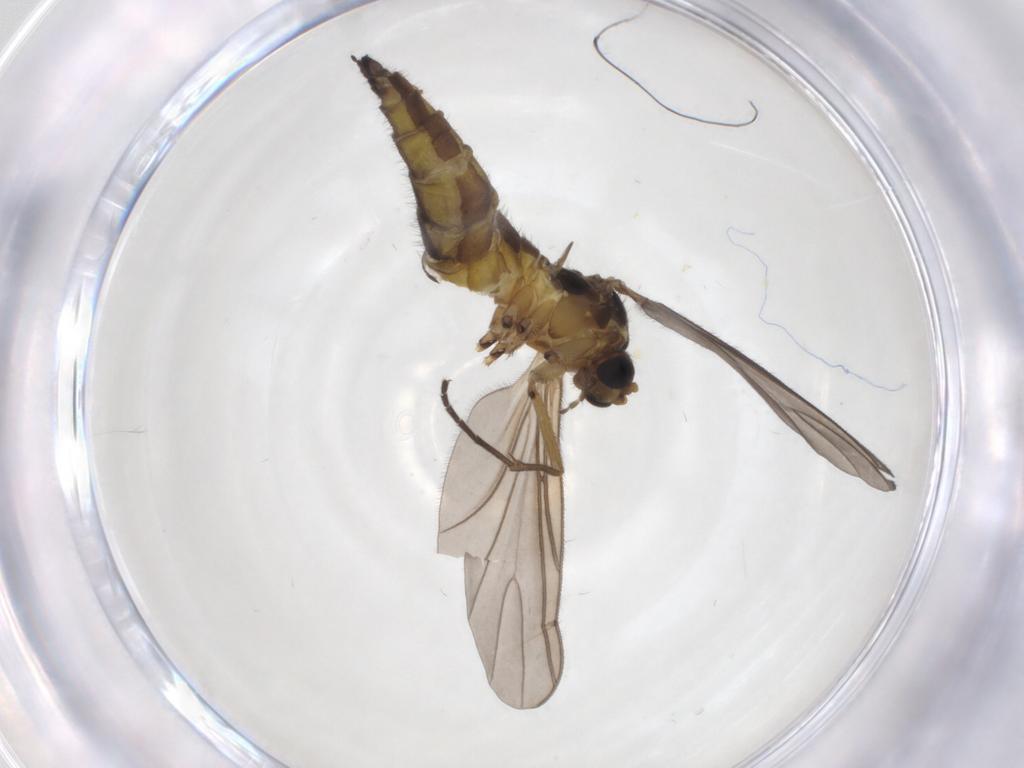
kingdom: Animalia
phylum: Arthropoda
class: Insecta
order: Diptera
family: Sciaridae
